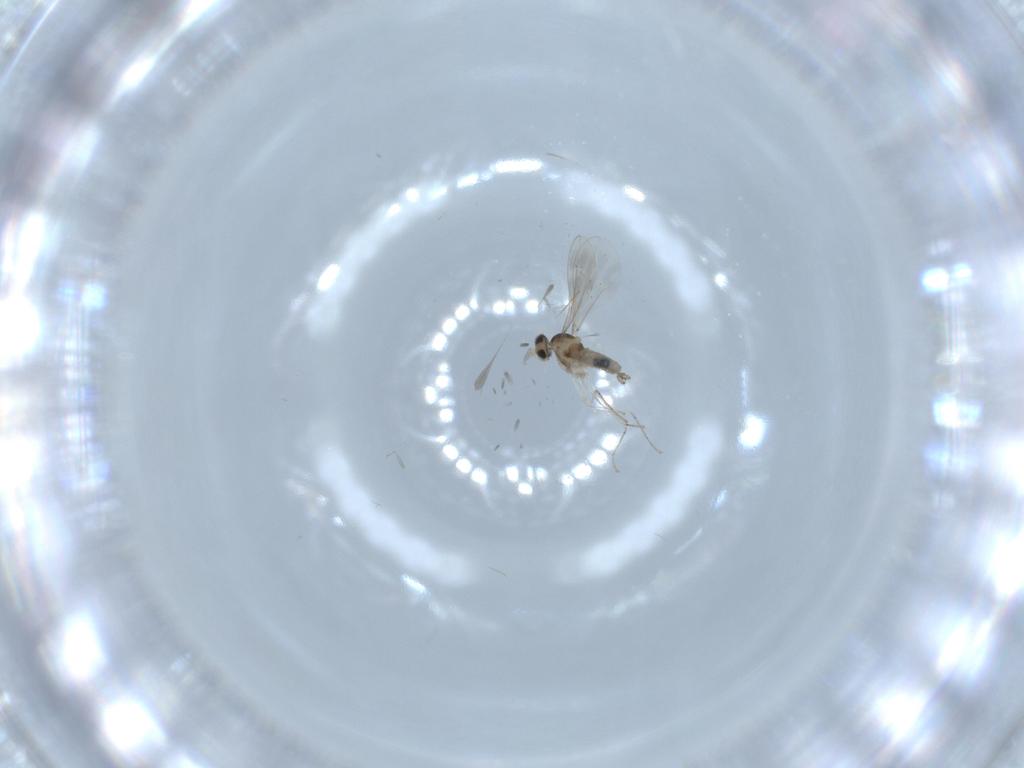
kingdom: Animalia
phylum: Arthropoda
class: Insecta
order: Diptera
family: Cecidomyiidae
